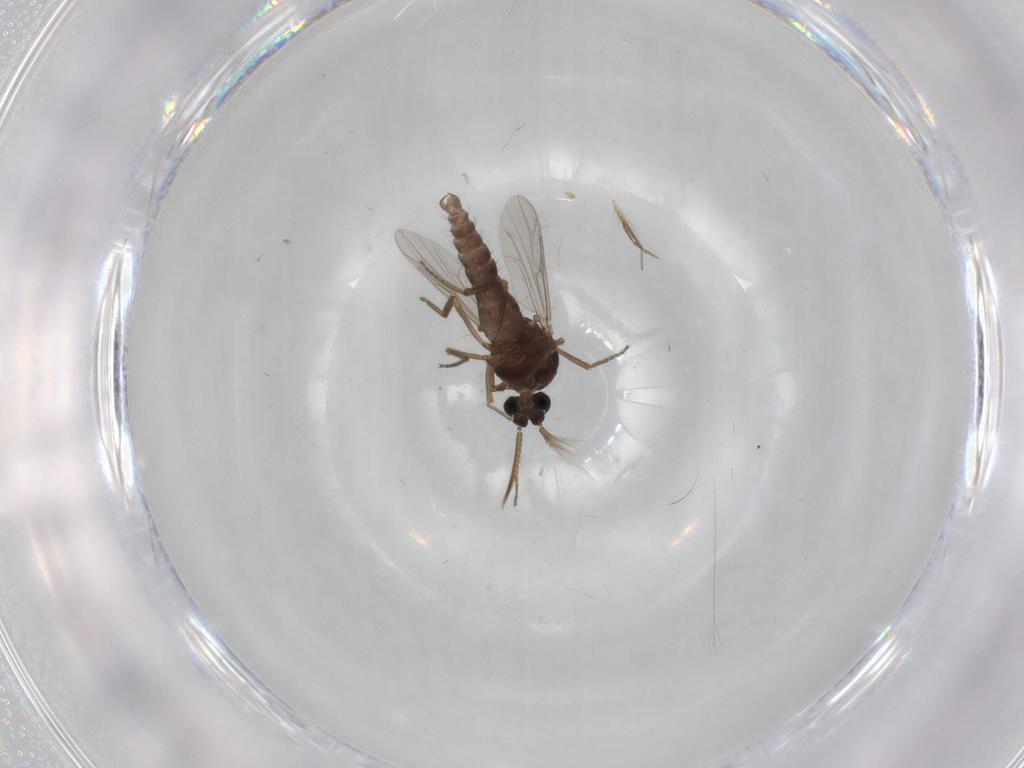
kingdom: Animalia
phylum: Arthropoda
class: Insecta
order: Diptera
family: Ceratopogonidae
